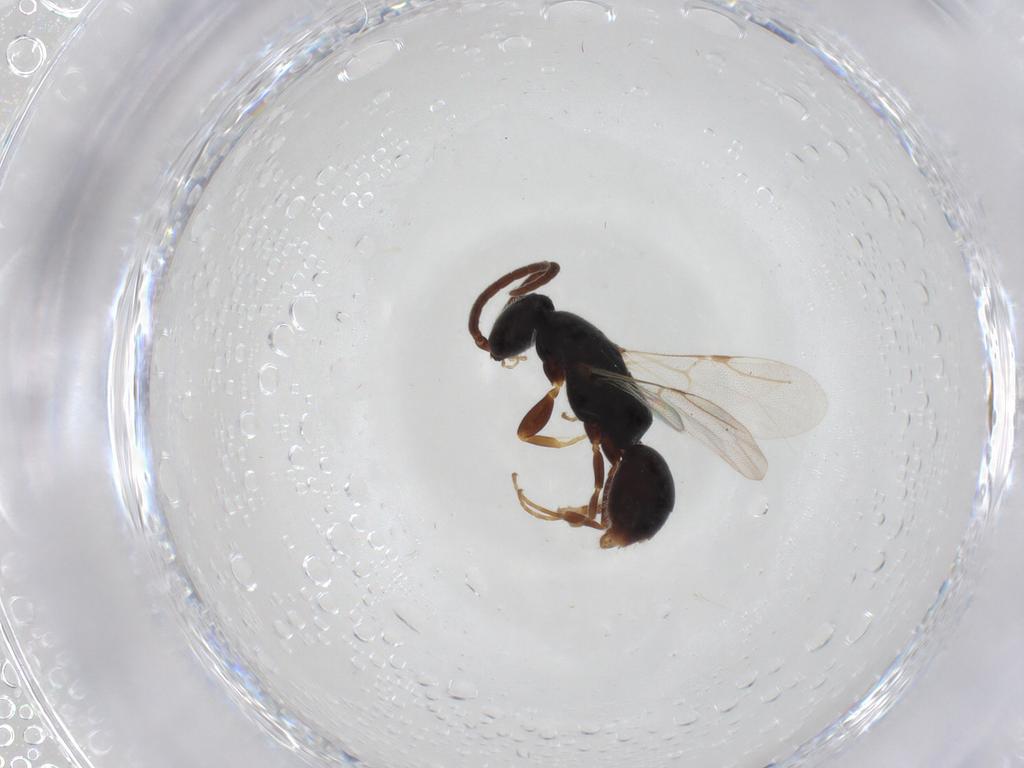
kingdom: Animalia
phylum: Arthropoda
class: Insecta
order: Hymenoptera
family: Bethylidae
